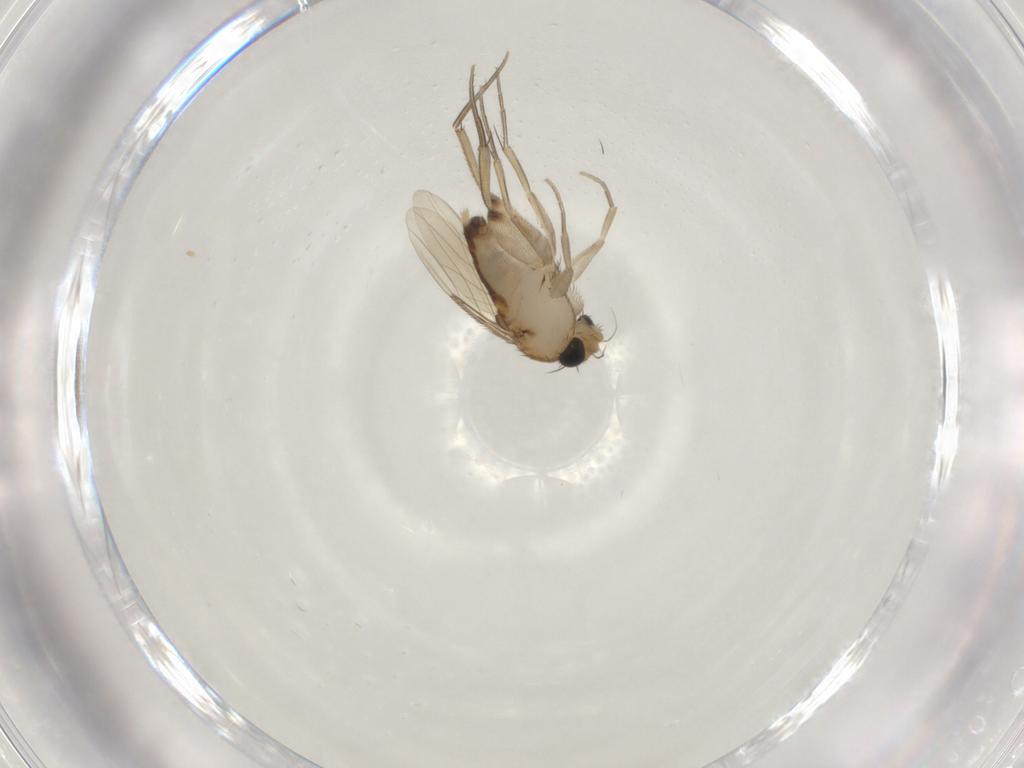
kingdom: Animalia
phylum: Arthropoda
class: Insecta
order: Diptera
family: Phoridae
